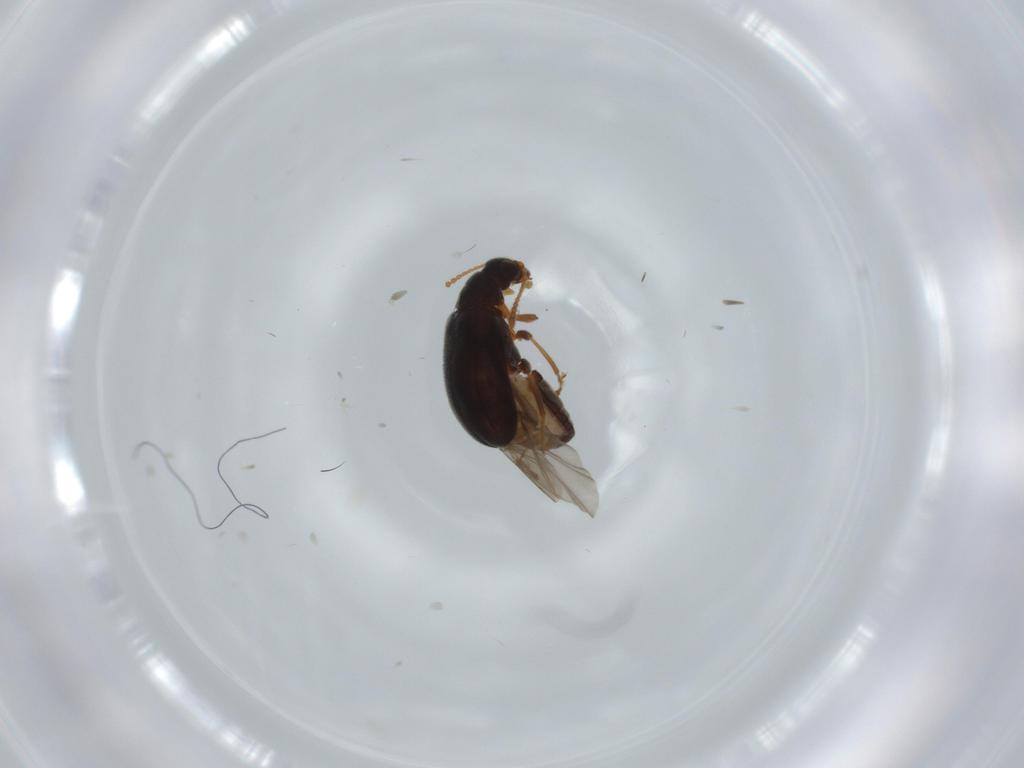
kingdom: Animalia
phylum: Arthropoda
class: Insecta
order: Coleoptera
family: Aderidae
